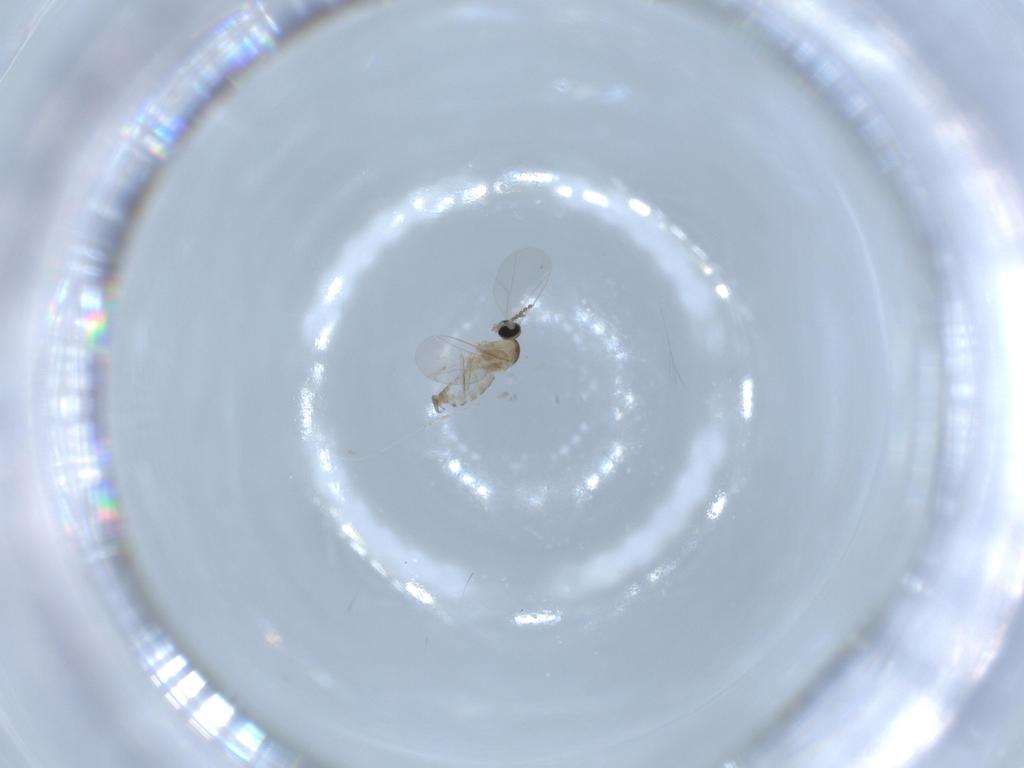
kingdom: Animalia
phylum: Arthropoda
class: Insecta
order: Diptera
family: Cecidomyiidae
